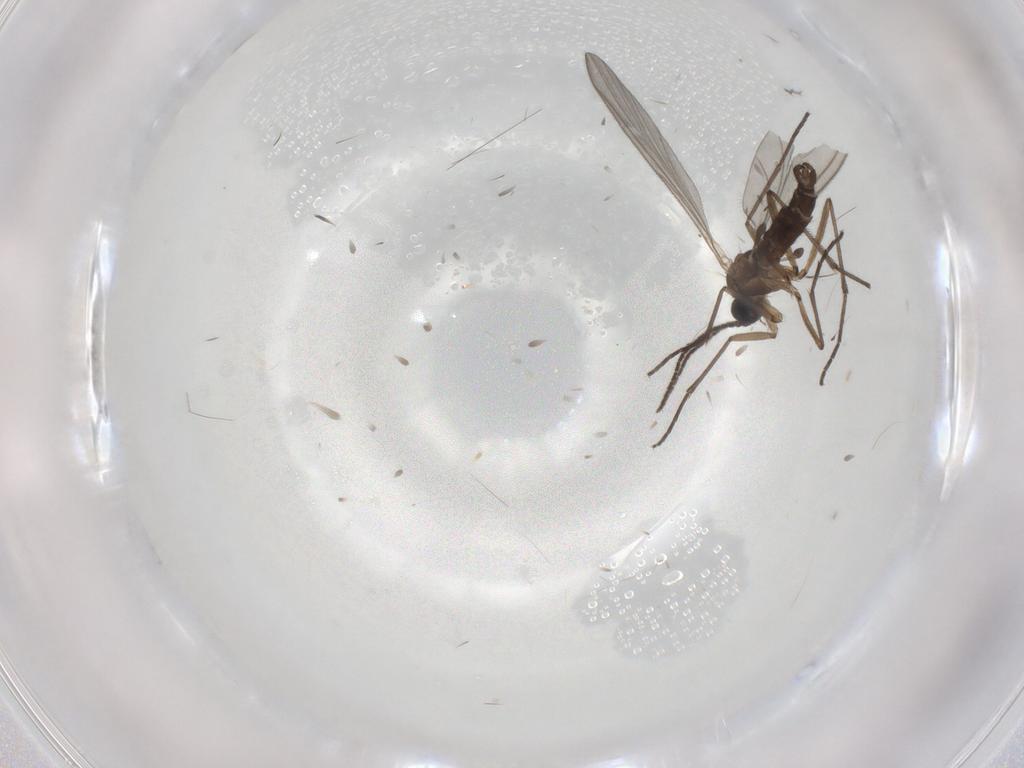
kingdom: Animalia
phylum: Arthropoda
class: Insecta
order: Diptera
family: Sciaridae
